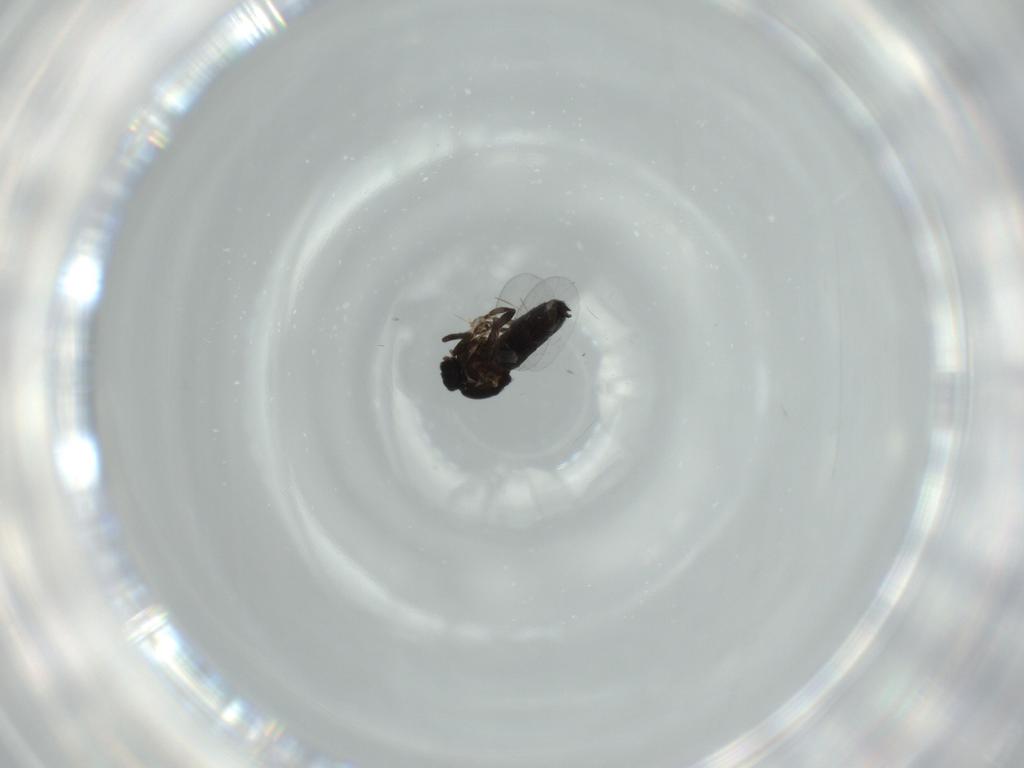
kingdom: Animalia
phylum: Arthropoda
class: Insecta
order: Diptera
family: Calliphoridae
